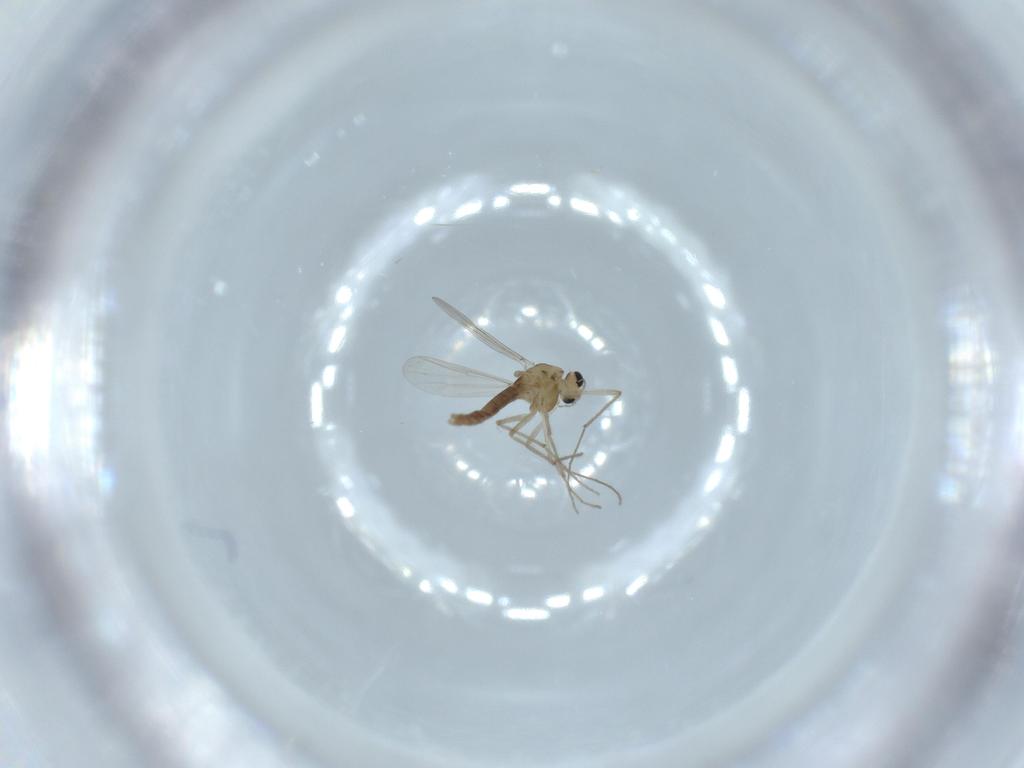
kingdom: Animalia
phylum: Arthropoda
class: Insecta
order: Diptera
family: Chironomidae
